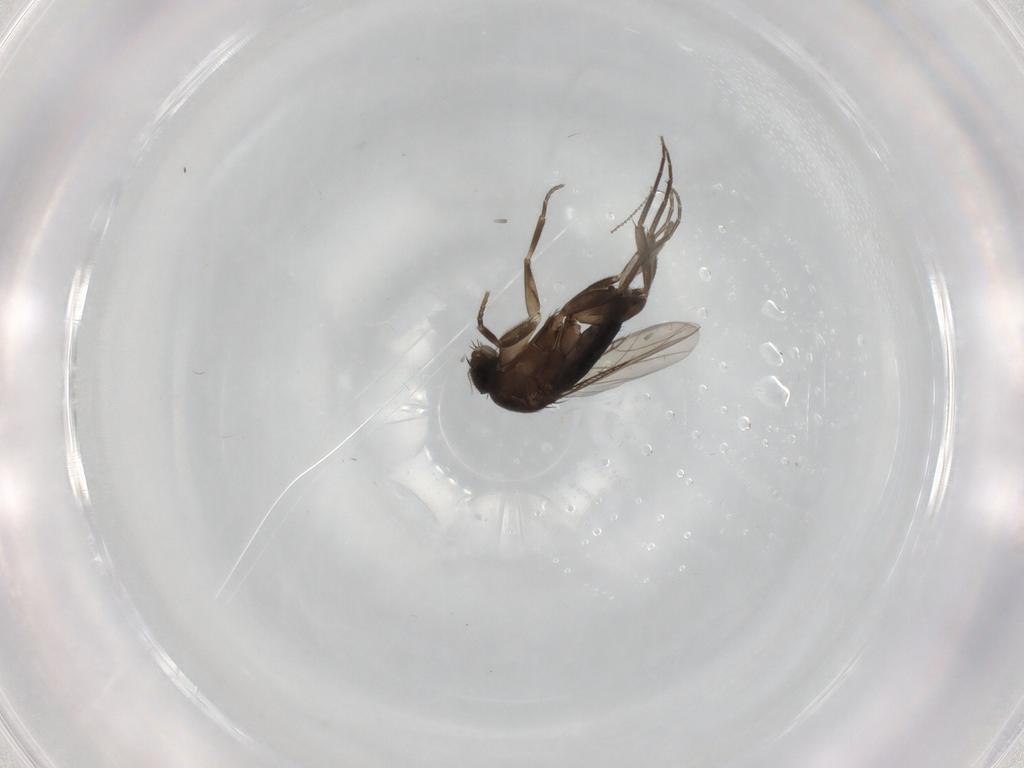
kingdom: Animalia
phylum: Arthropoda
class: Insecta
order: Diptera
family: Phoridae
